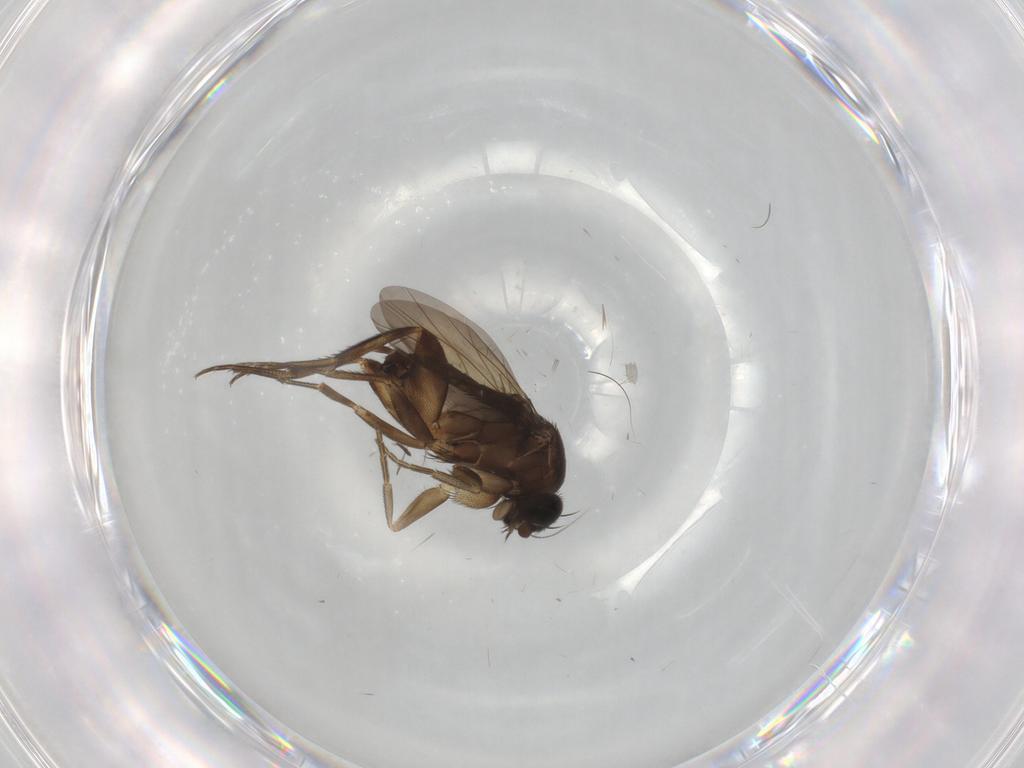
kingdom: Animalia
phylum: Arthropoda
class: Insecta
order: Diptera
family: Phoridae
